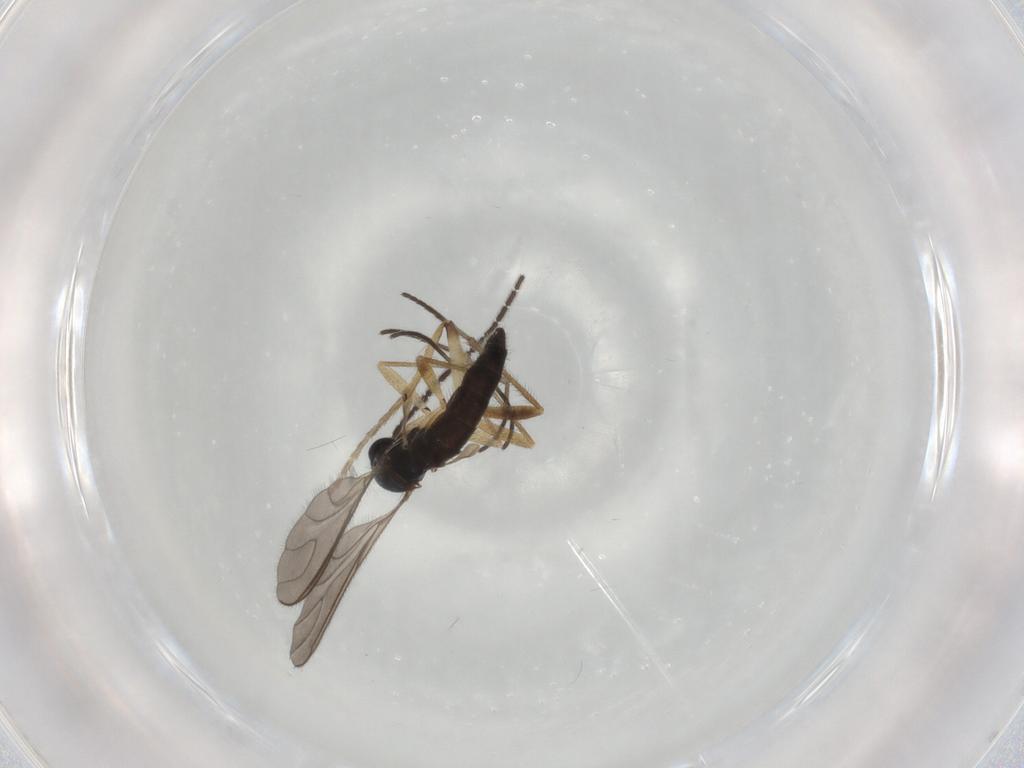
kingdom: Animalia
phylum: Arthropoda
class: Insecta
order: Diptera
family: Sciaridae
